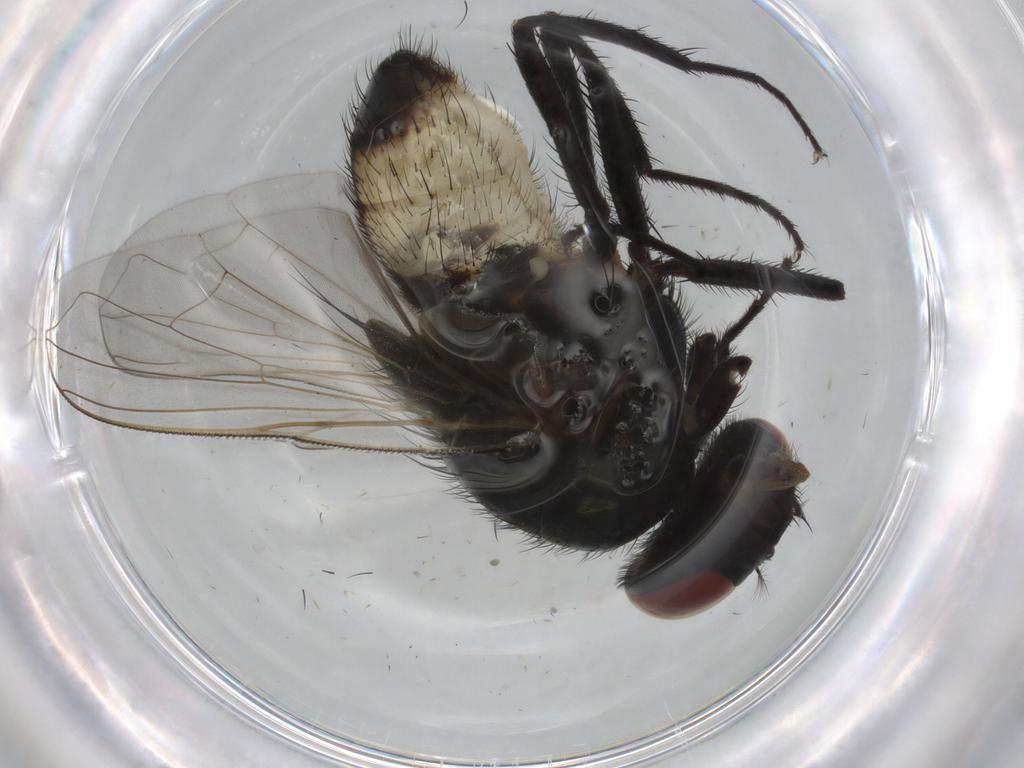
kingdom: Animalia
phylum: Arthropoda
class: Insecta
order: Diptera
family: Muscidae
